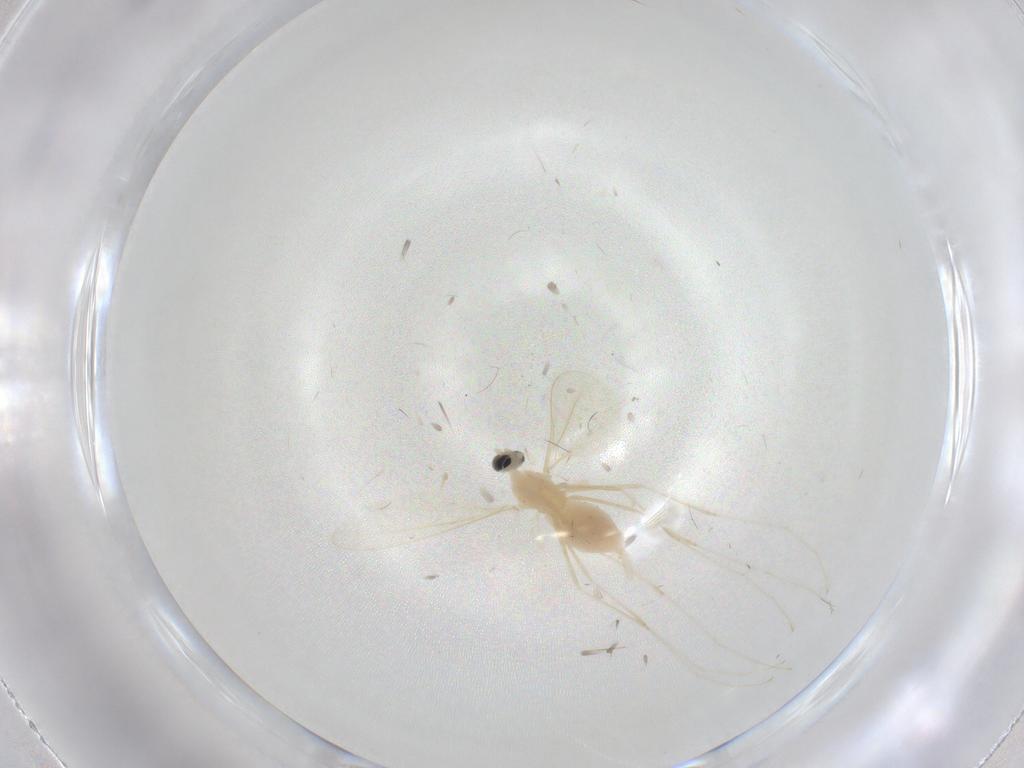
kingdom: Animalia
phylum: Arthropoda
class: Insecta
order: Diptera
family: Cecidomyiidae
